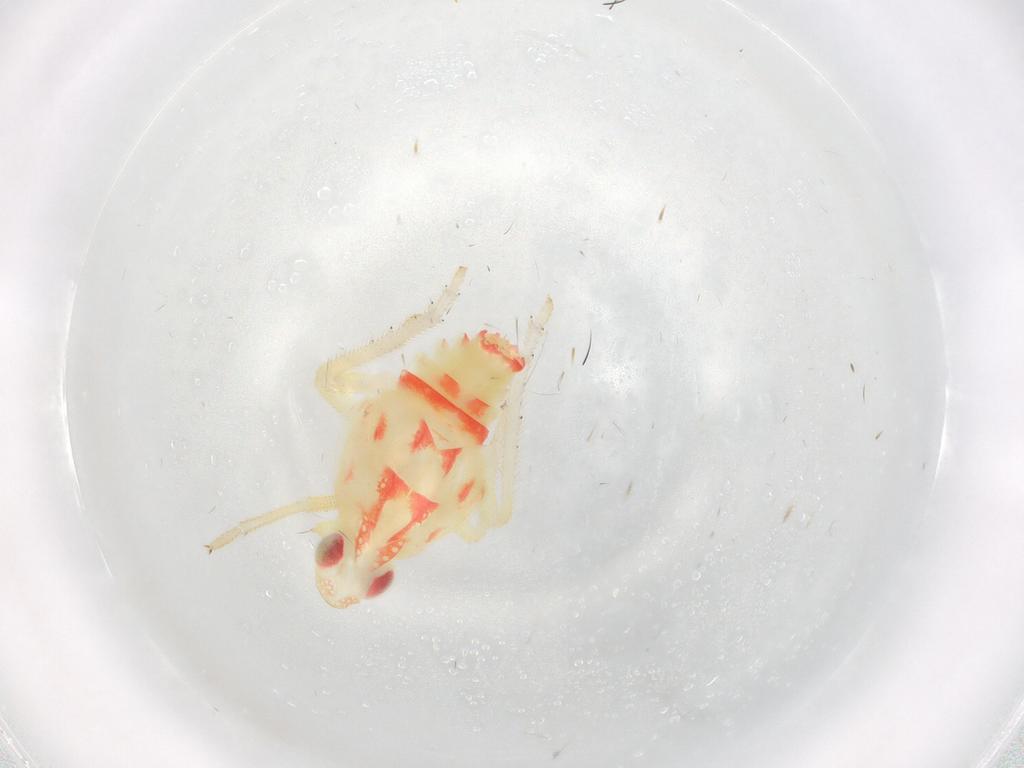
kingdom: Animalia
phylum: Arthropoda
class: Insecta
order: Hemiptera
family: Tropiduchidae
